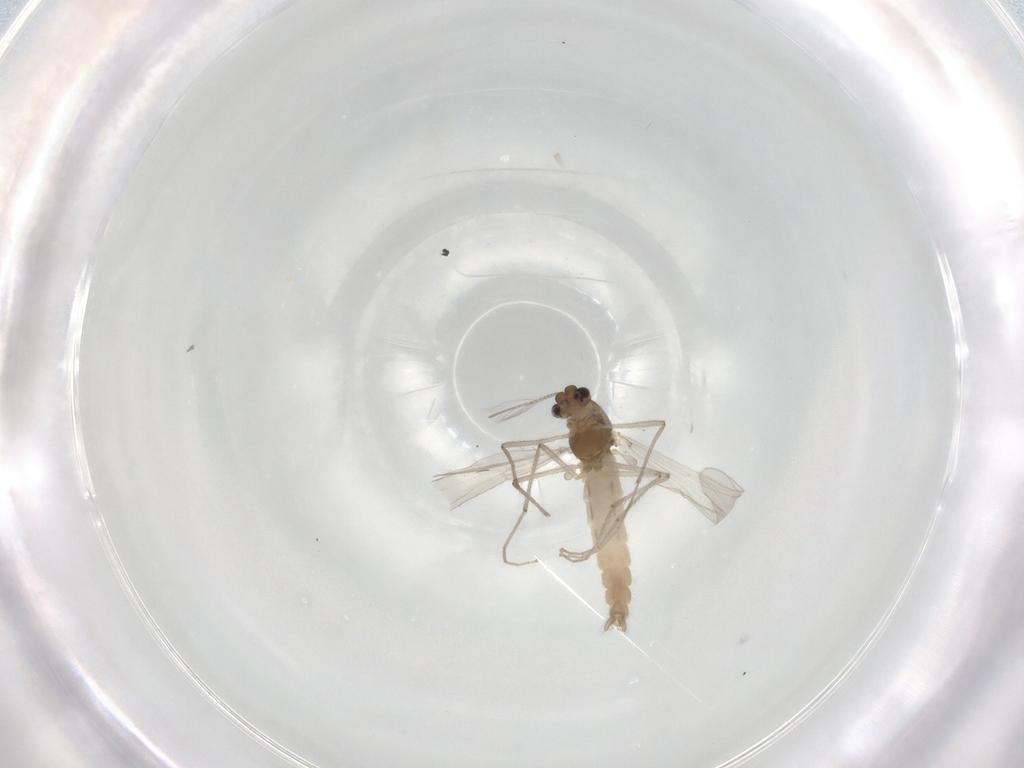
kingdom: Animalia
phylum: Arthropoda
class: Insecta
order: Diptera
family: Chironomidae
